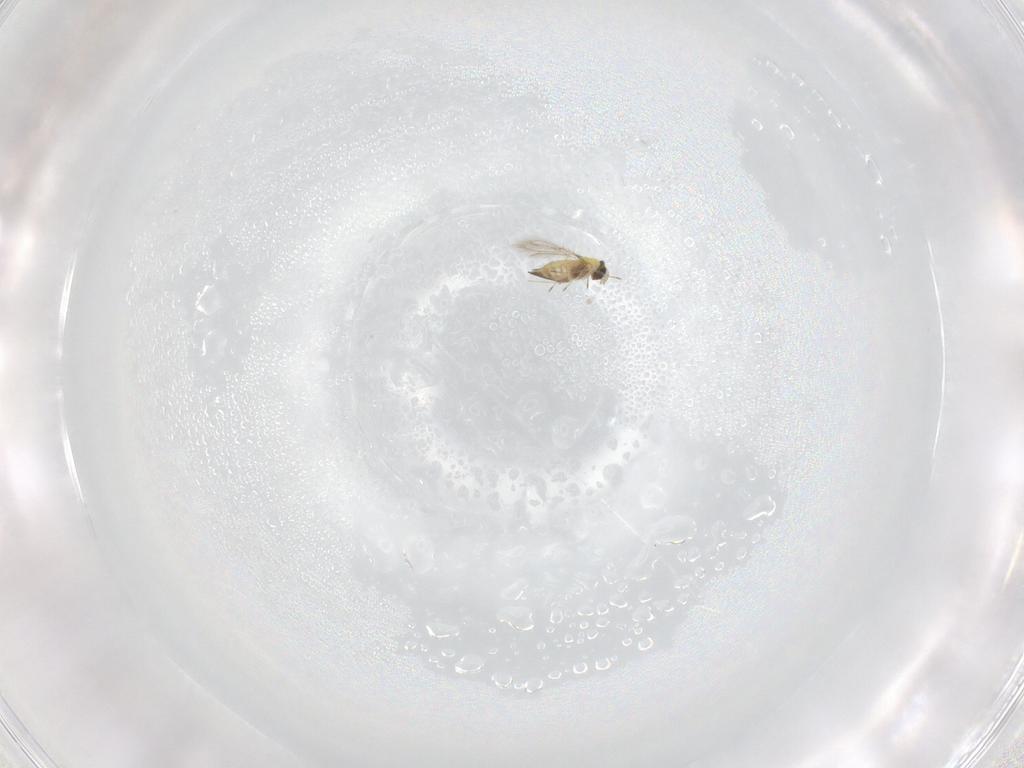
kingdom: Animalia
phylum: Arthropoda
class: Insecta
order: Hymenoptera
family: Trichogrammatidae
